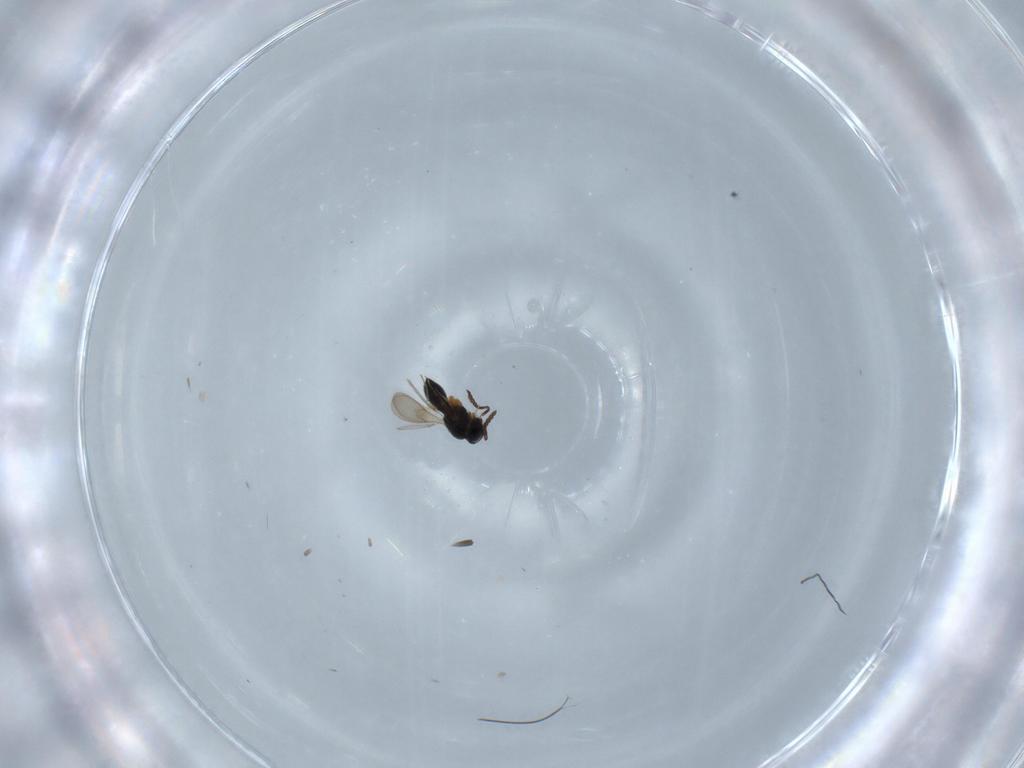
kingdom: Animalia
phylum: Arthropoda
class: Insecta
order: Hymenoptera
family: Scelionidae
